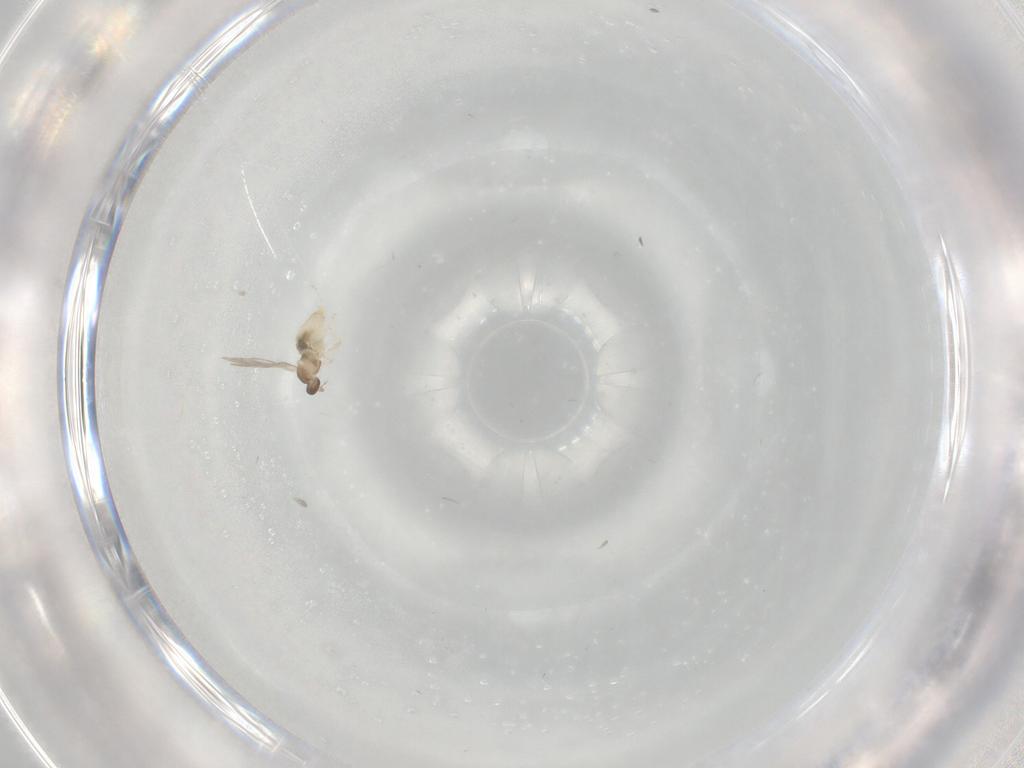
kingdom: Animalia
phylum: Arthropoda
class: Insecta
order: Diptera
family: Cecidomyiidae
